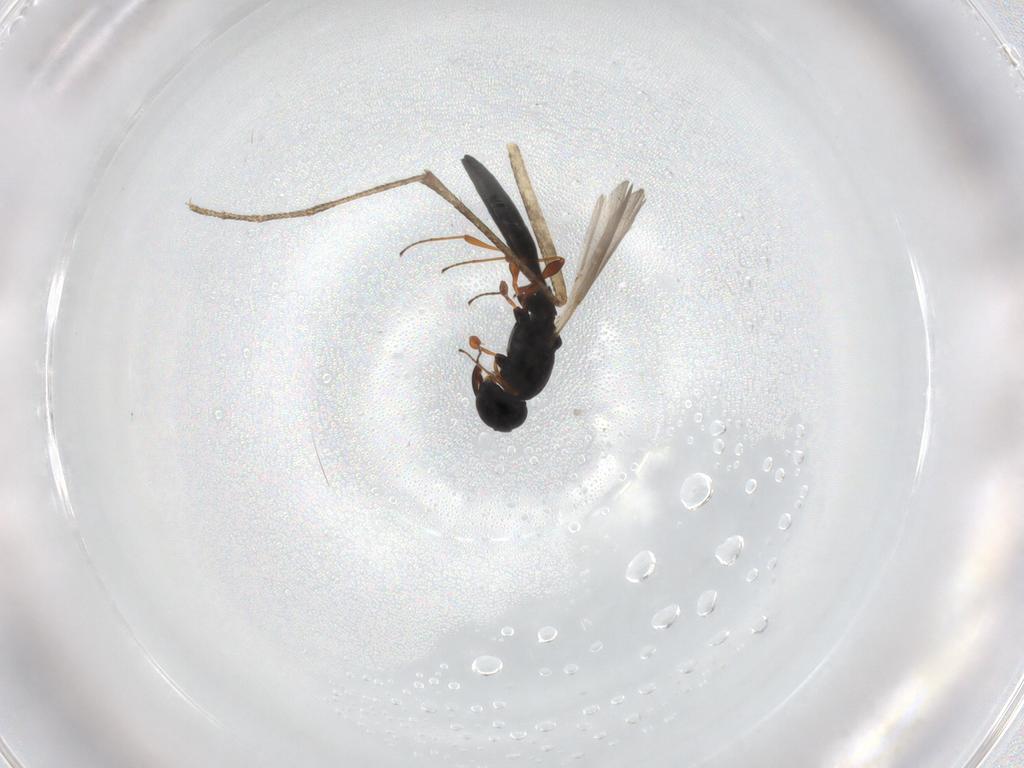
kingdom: Animalia
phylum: Arthropoda
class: Insecta
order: Hymenoptera
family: Platygastridae
